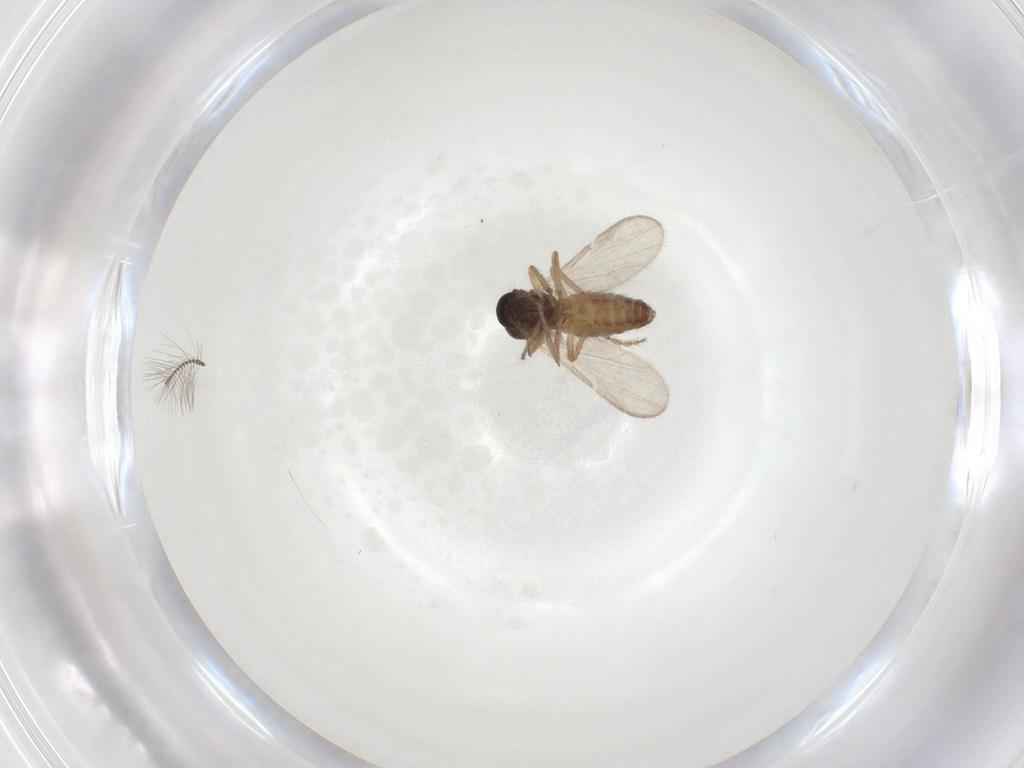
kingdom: Animalia
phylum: Arthropoda
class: Insecta
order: Diptera
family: Ceratopogonidae
